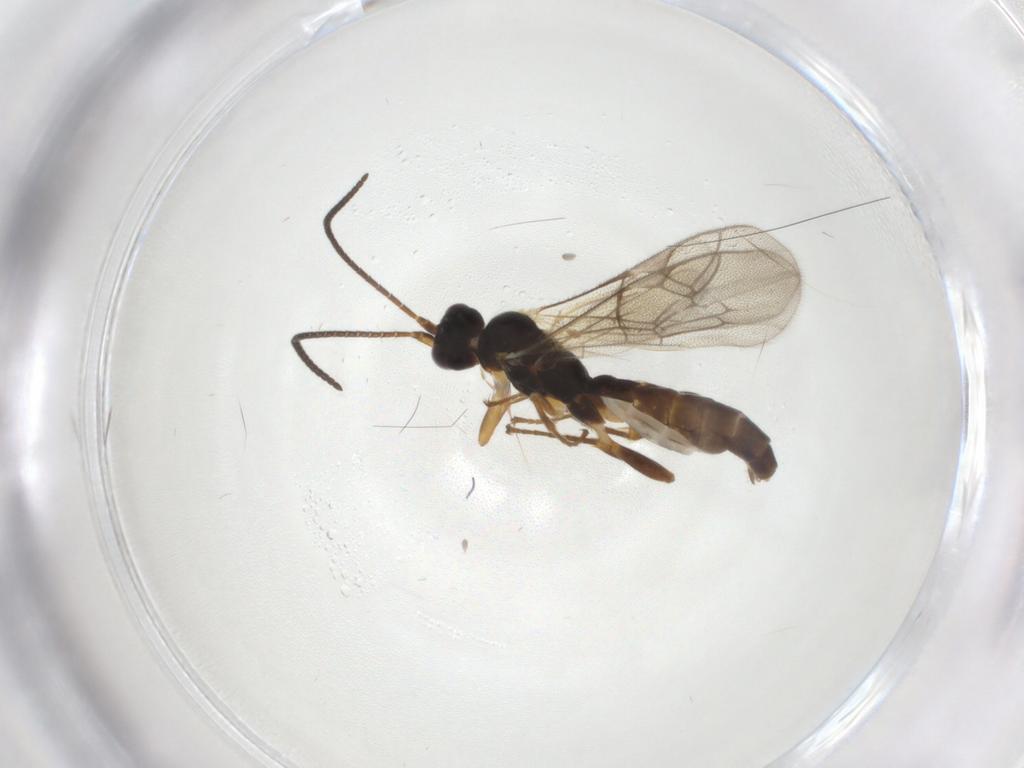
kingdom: Animalia
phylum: Arthropoda
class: Insecta
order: Hymenoptera
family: Ichneumonidae
